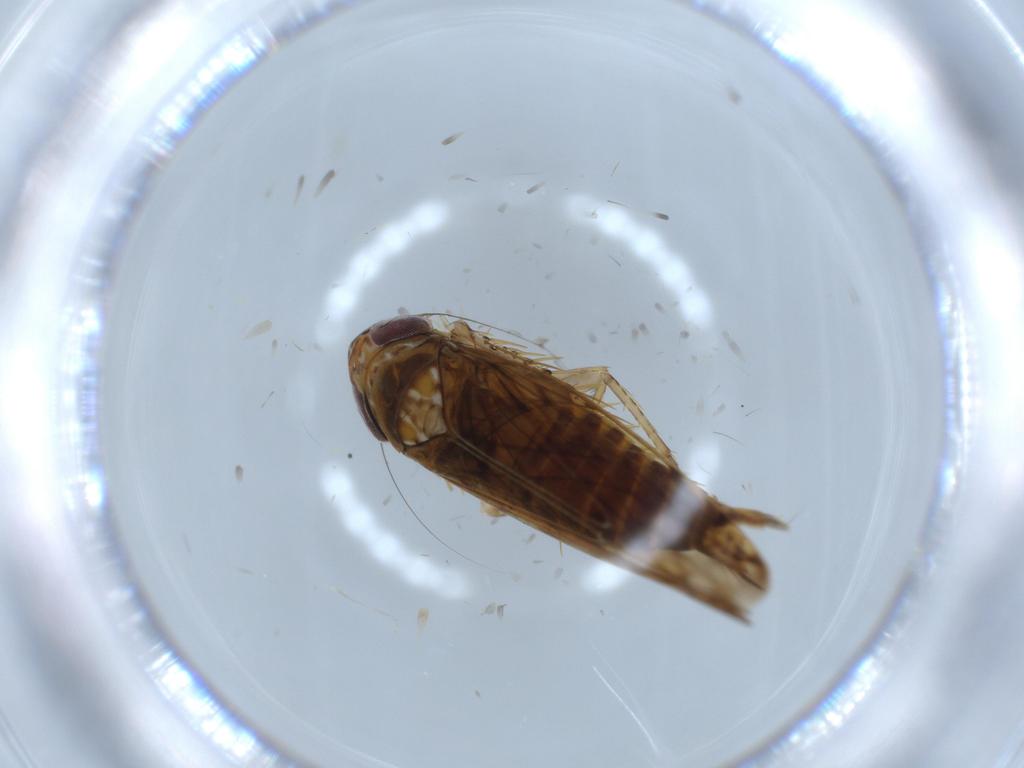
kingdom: Animalia
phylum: Arthropoda
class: Insecta
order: Hemiptera
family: Cicadellidae
